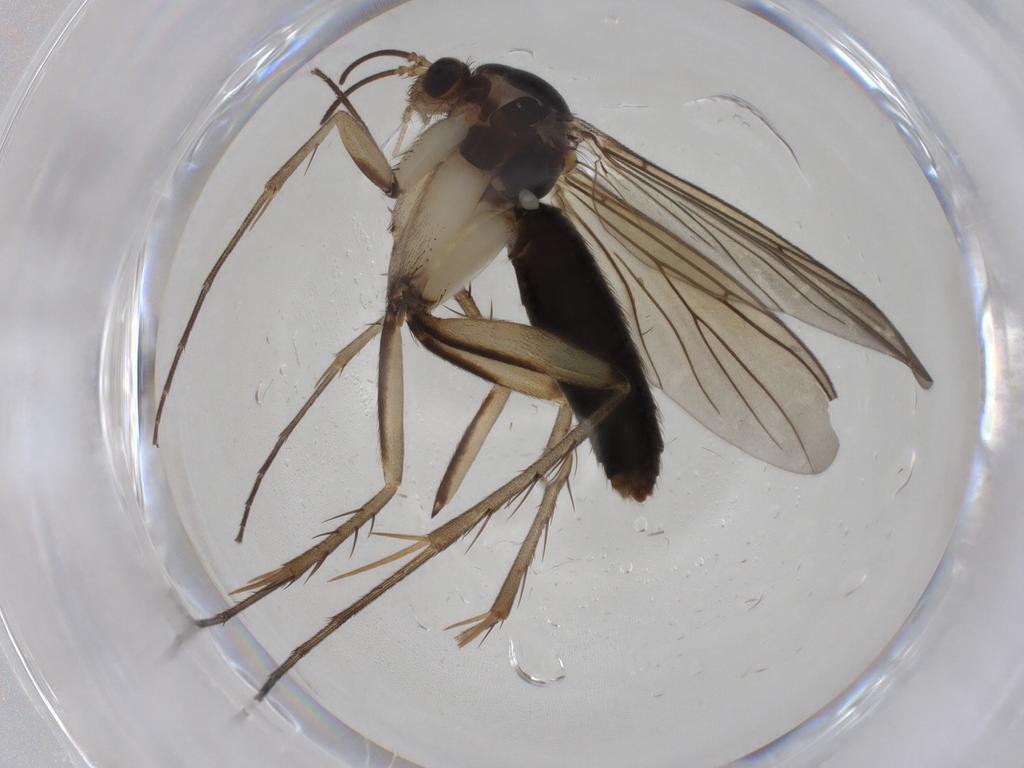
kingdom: Animalia
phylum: Arthropoda
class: Insecta
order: Diptera
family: Mycetophilidae
